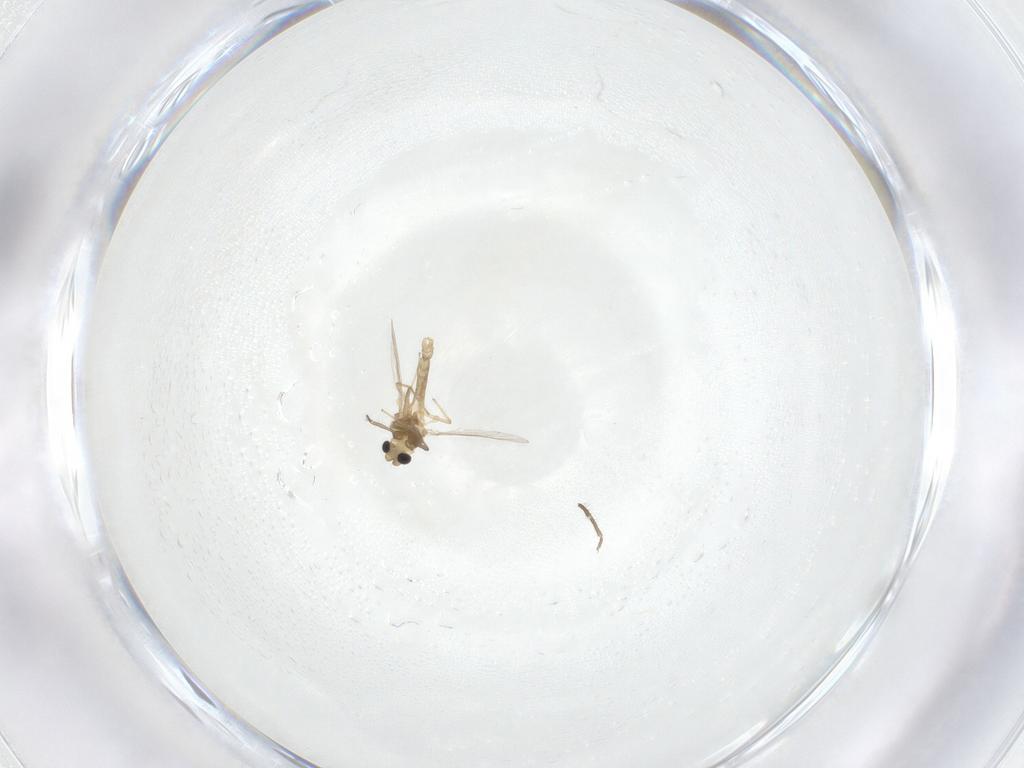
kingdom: Animalia
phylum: Arthropoda
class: Insecta
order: Diptera
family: Chironomidae
